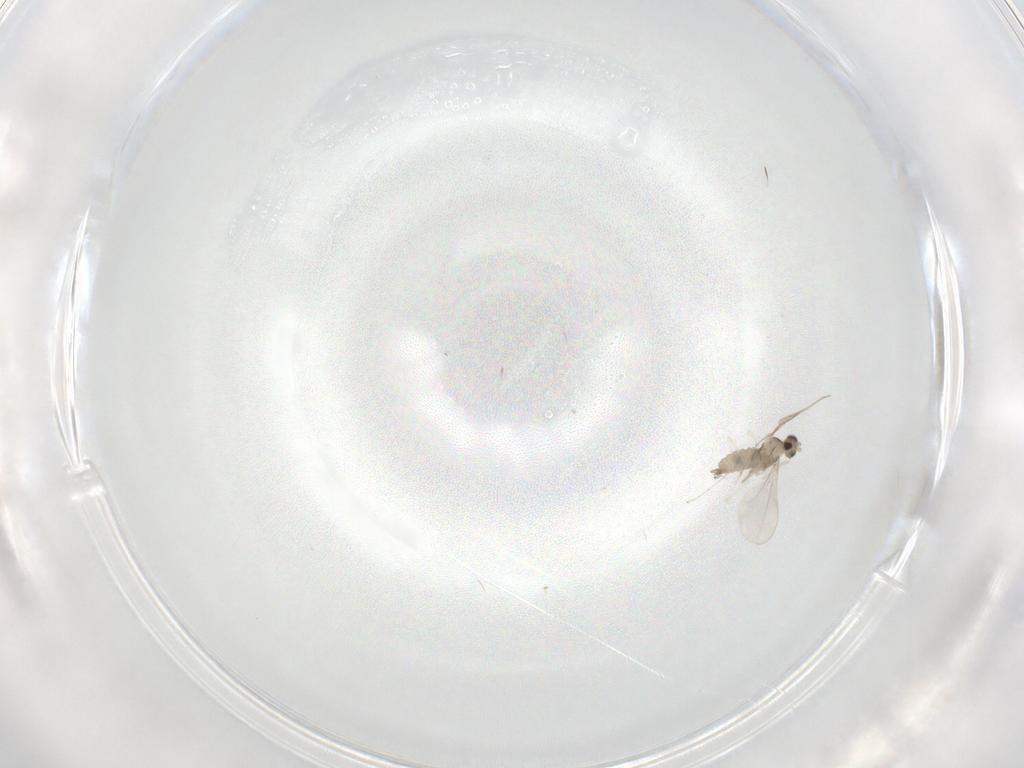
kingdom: Animalia
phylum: Arthropoda
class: Insecta
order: Diptera
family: Cecidomyiidae
